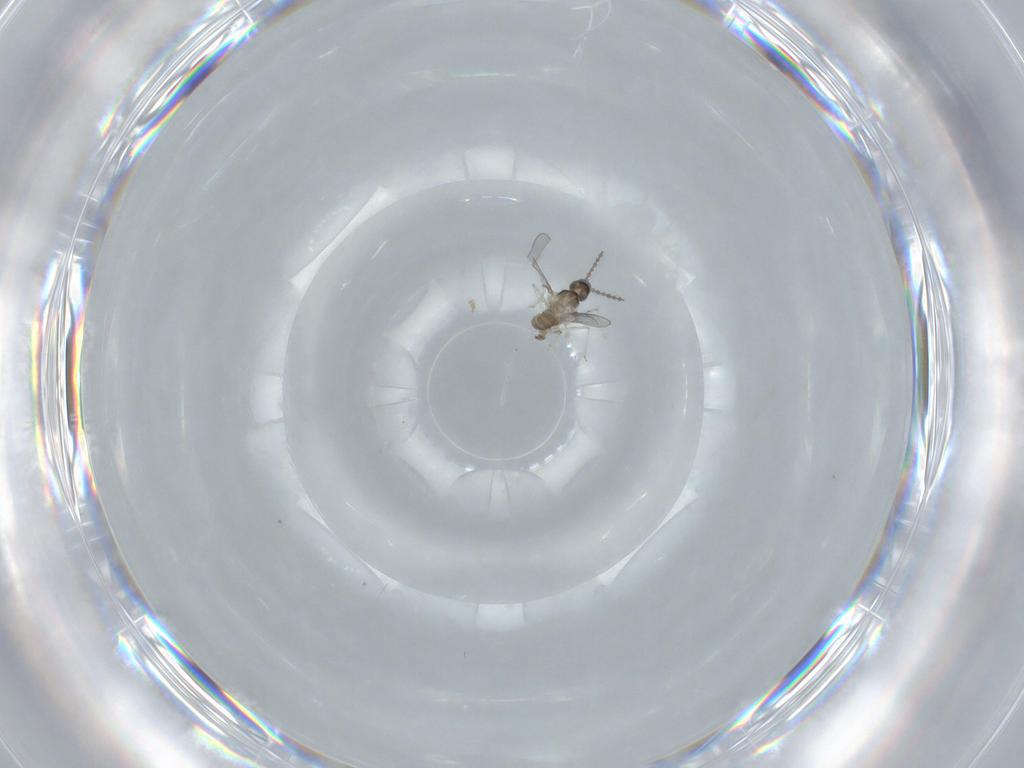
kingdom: Animalia
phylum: Arthropoda
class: Insecta
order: Diptera
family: Cecidomyiidae
